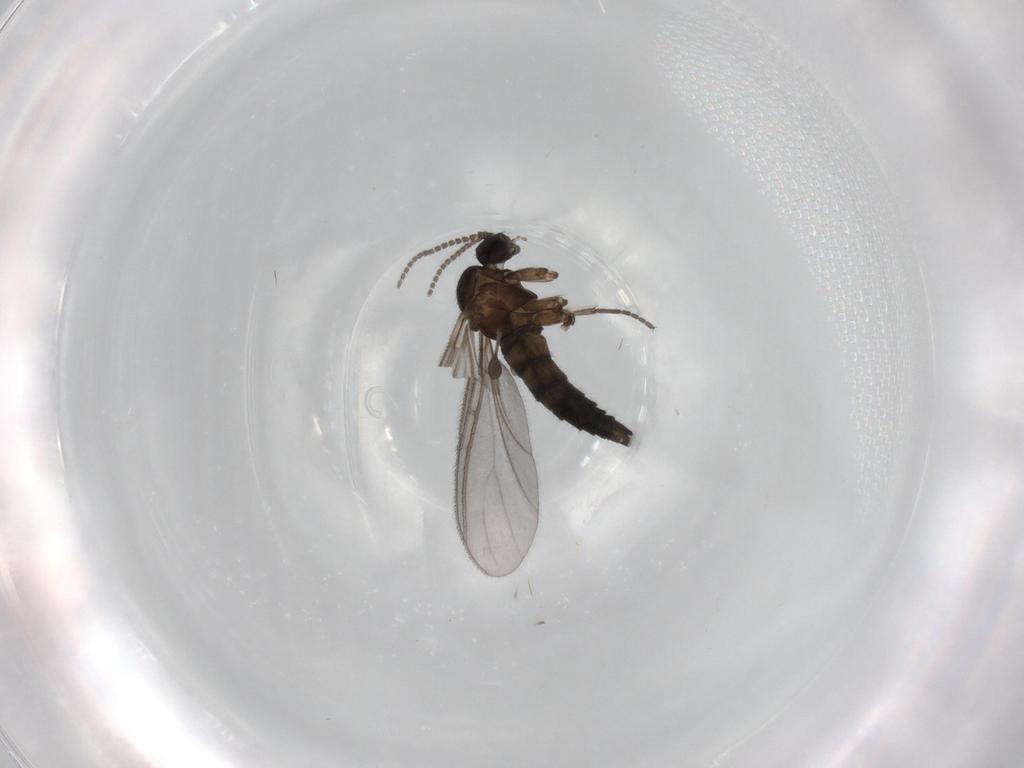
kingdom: Animalia
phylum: Arthropoda
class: Insecta
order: Diptera
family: Sciaridae
